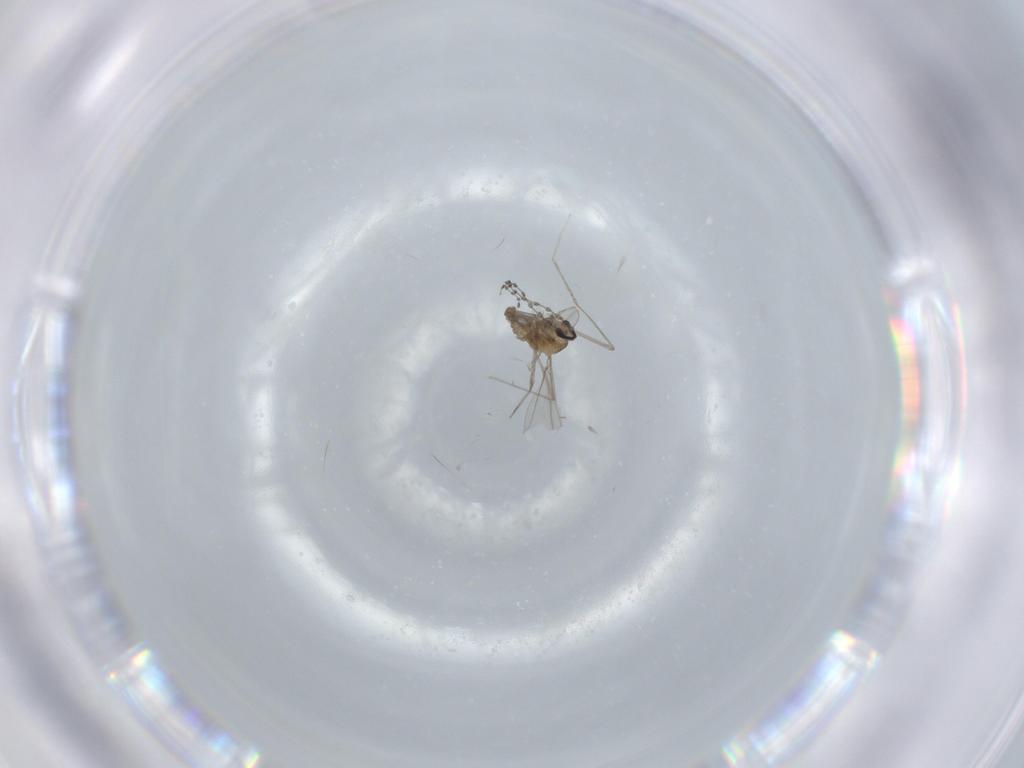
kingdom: Animalia
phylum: Arthropoda
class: Insecta
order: Diptera
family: Cecidomyiidae
